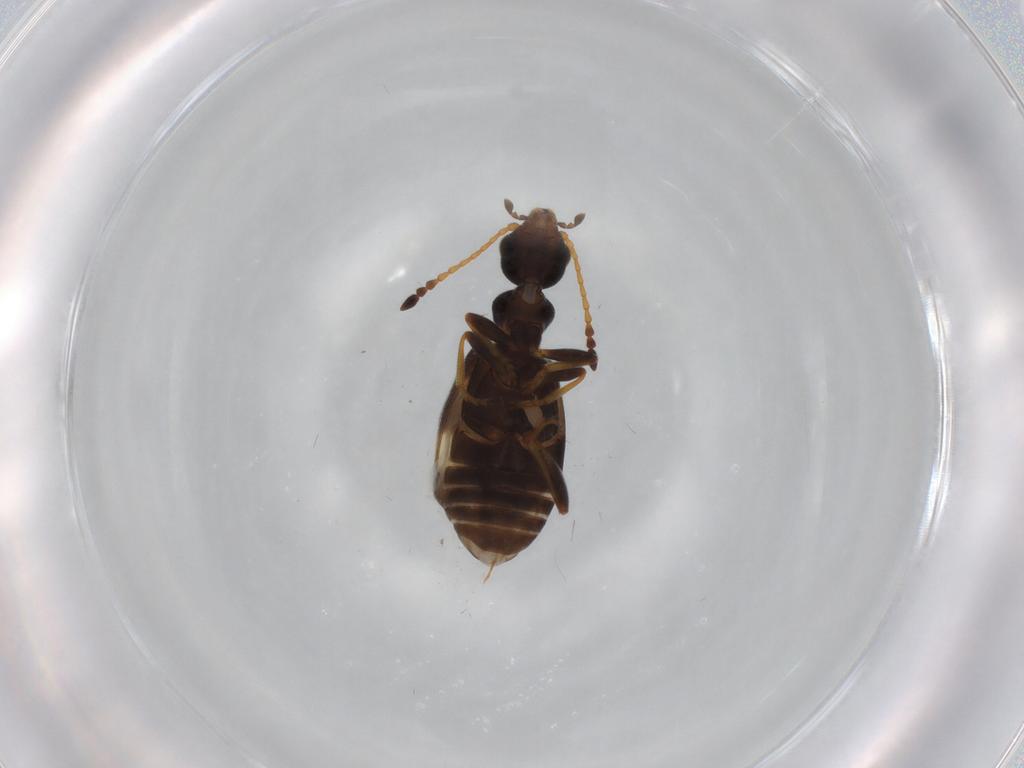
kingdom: Animalia
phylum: Arthropoda
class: Insecta
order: Coleoptera
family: Anthicidae
